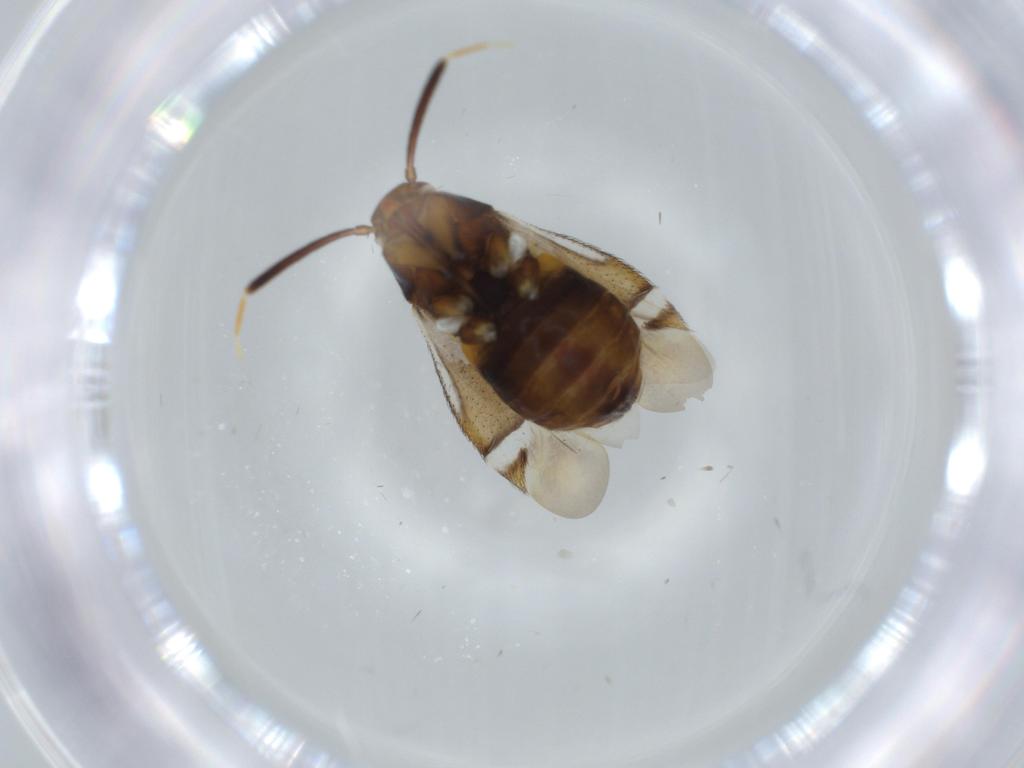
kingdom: Animalia
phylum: Arthropoda
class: Insecta
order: Hemiptera
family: Miridae
